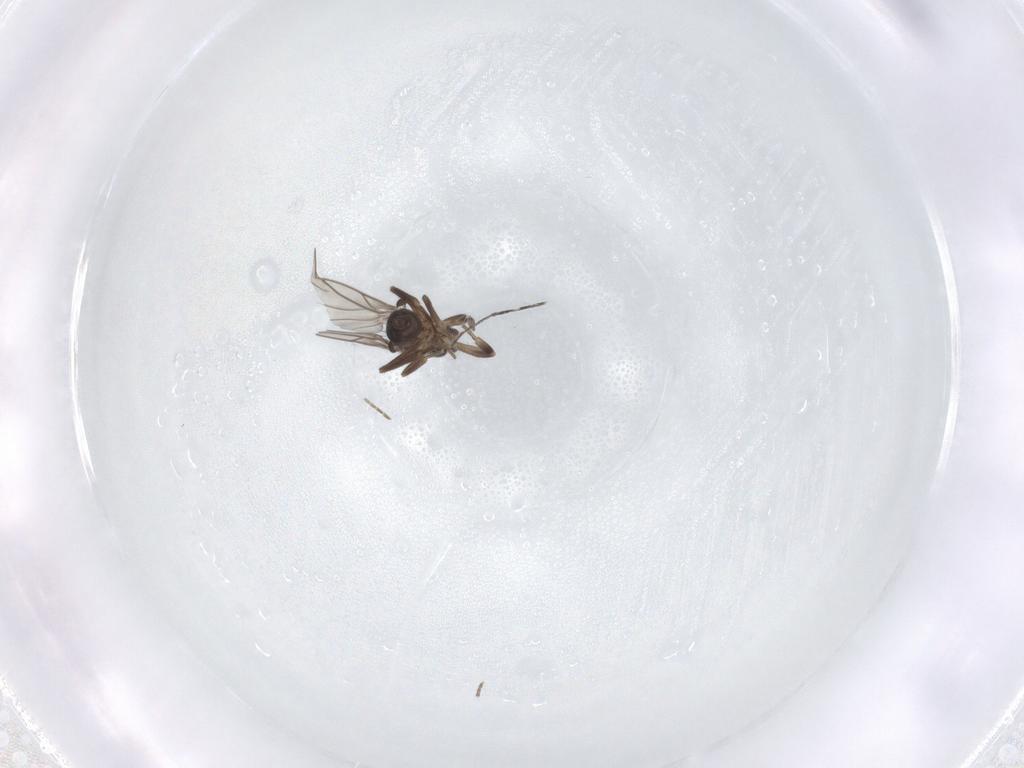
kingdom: Animalia
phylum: Arthropoda
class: Insecta
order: Diptera
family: Phoridae
